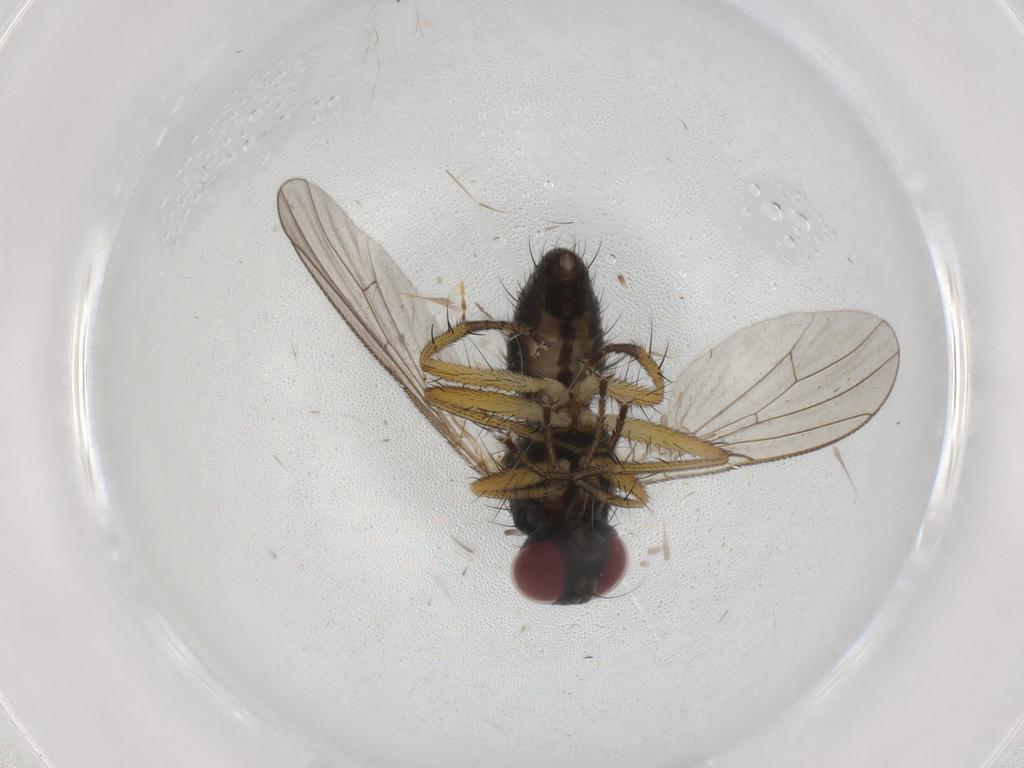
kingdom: Animalia
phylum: Arthropoda
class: Insecta
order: Diptera
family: Muscidae
